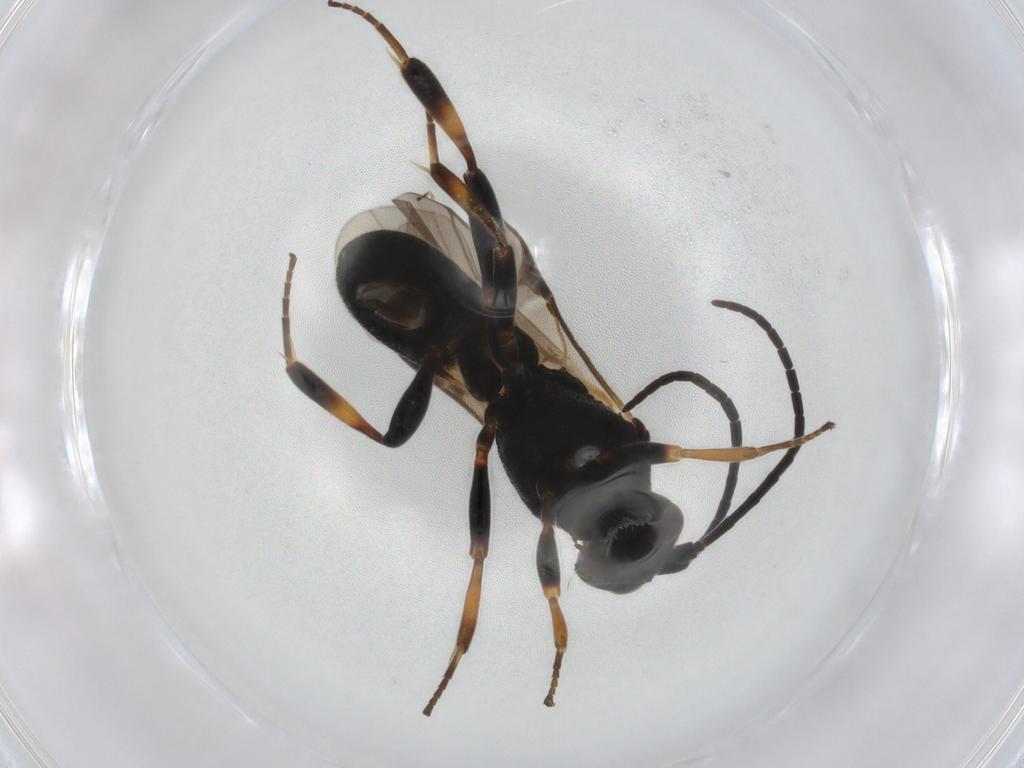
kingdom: Animalia
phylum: Arthropoda
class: Insecta
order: Hymenoptera
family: Braconidae
